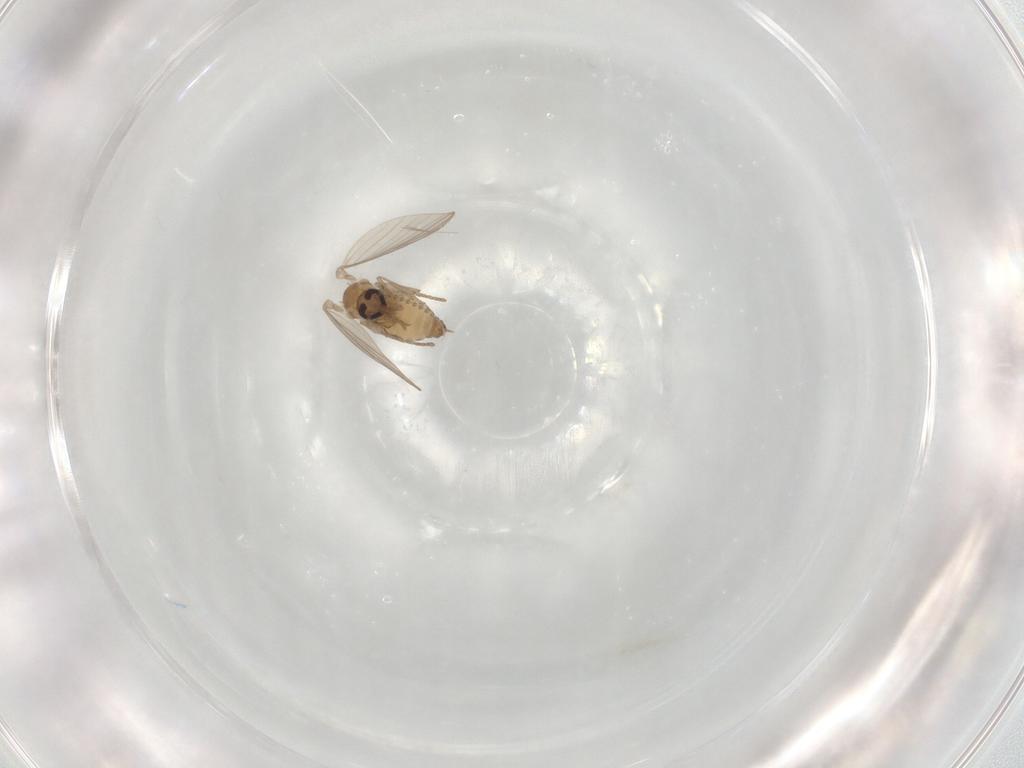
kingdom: Animalia
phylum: Arthropoda
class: Insecta
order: Diptera
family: Psychodidae
